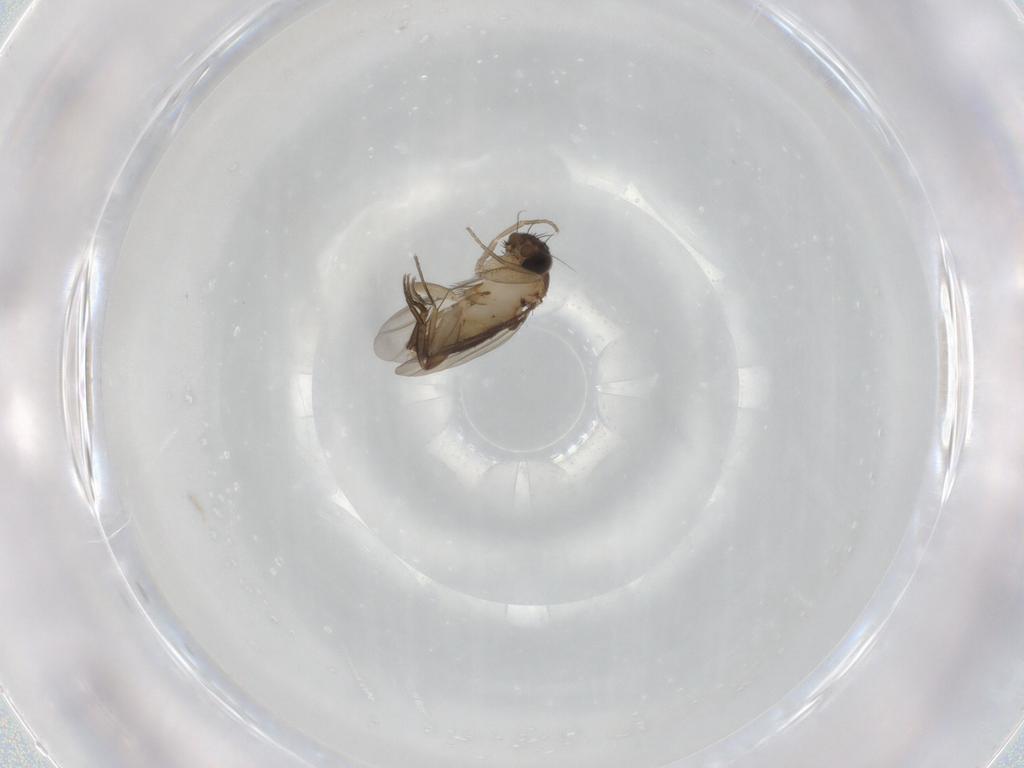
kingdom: Animalia
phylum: Arthropoda
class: Insecta
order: Diptera
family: Phoridae
